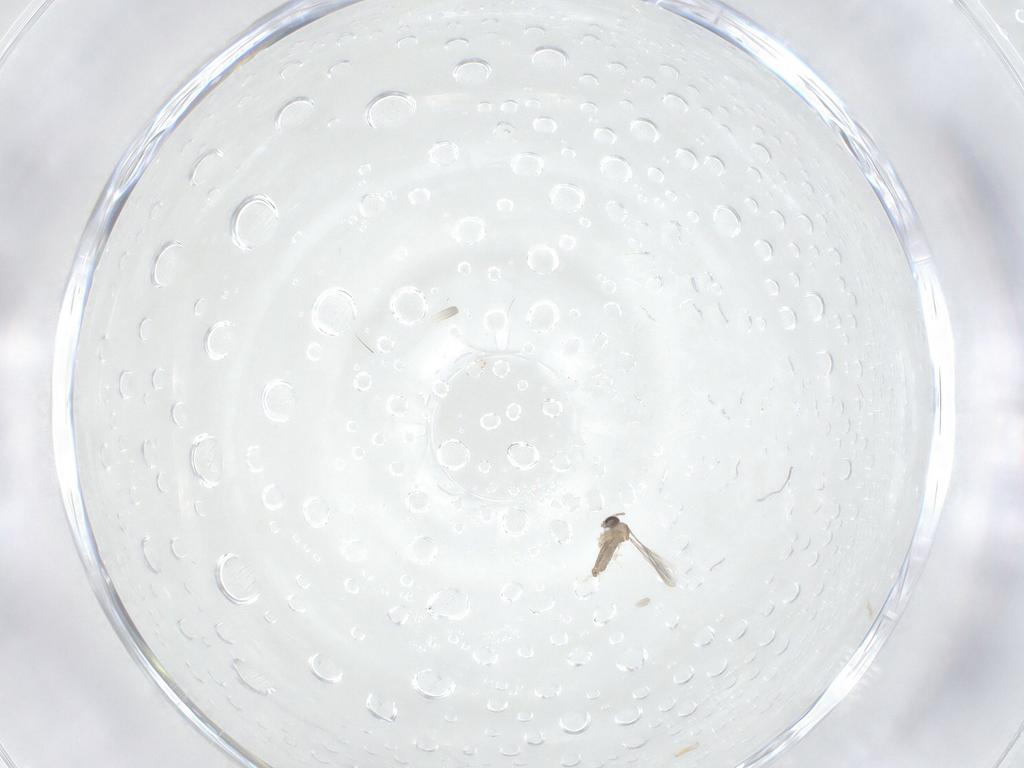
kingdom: Animalia
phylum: Arthropoda
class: Insecta
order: Diptera
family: Cecidomyiidae
